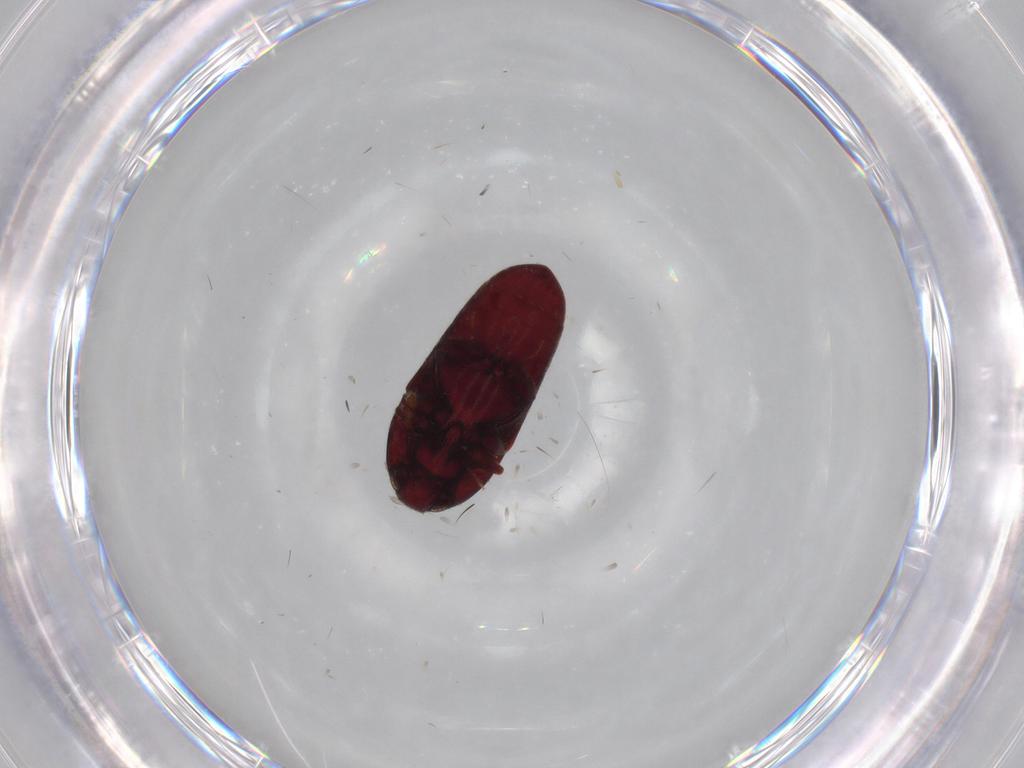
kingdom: Animalia
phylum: Arthropoda
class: Insecta
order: Coleoptera
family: Throscidae
